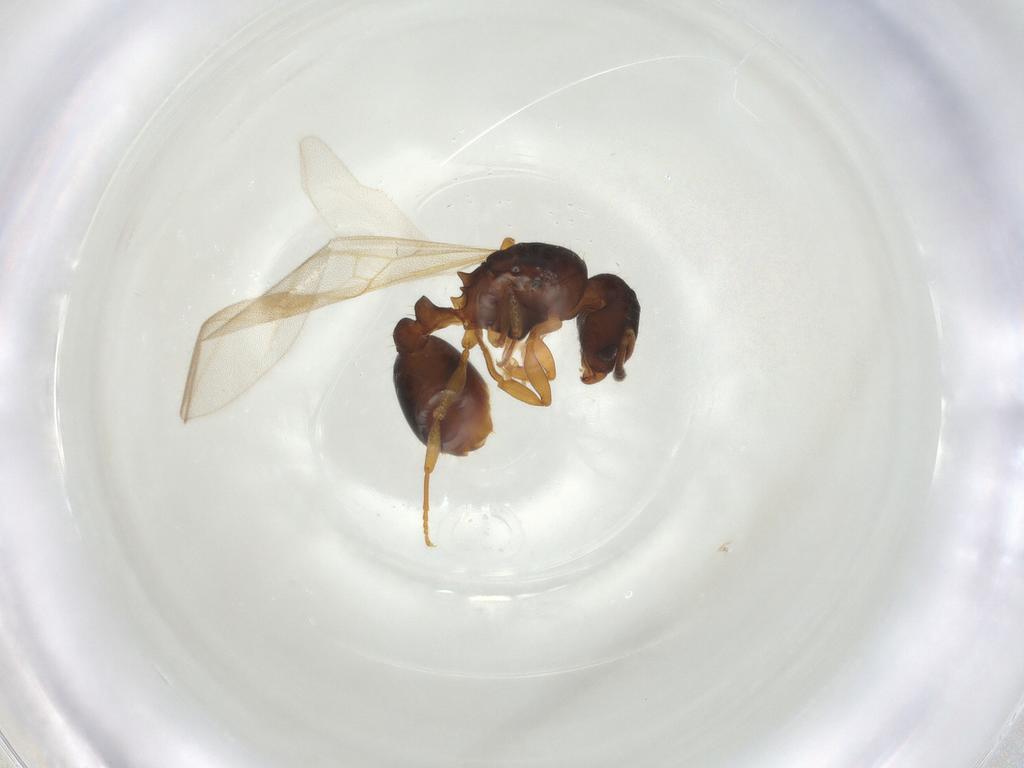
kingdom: Animalia
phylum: Arthropoda
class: Insecta
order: Hymenoptera
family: Formicidae
